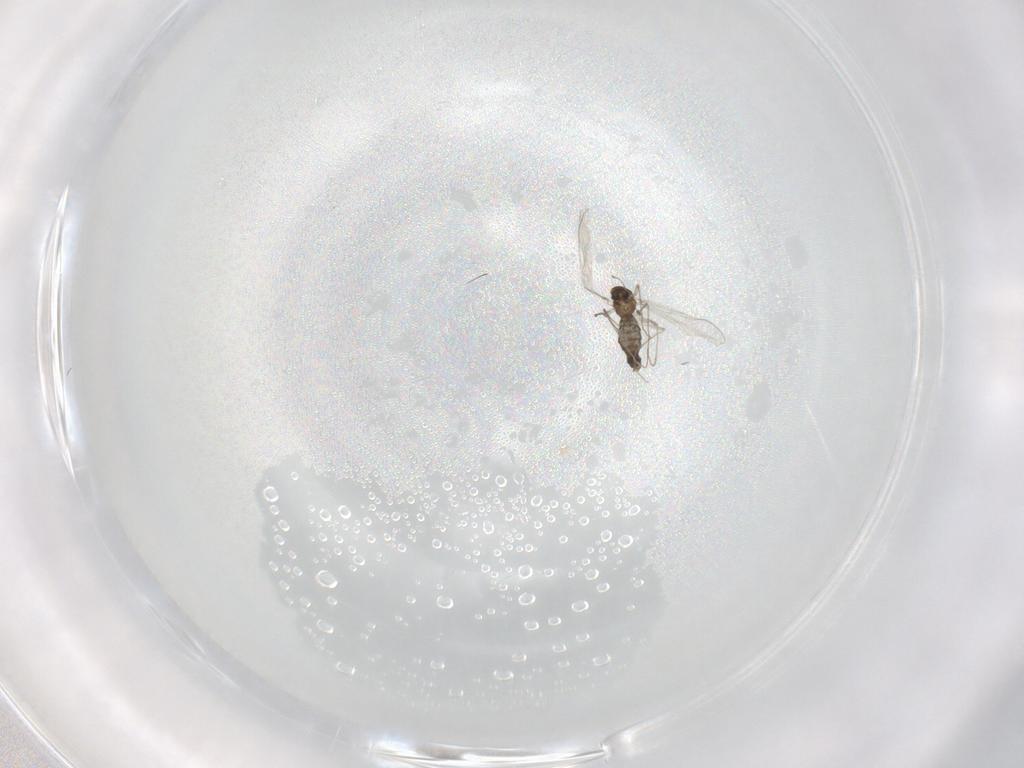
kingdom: Animalia
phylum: Arthropoda
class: Insecta
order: Diptera
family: Chironomidae
